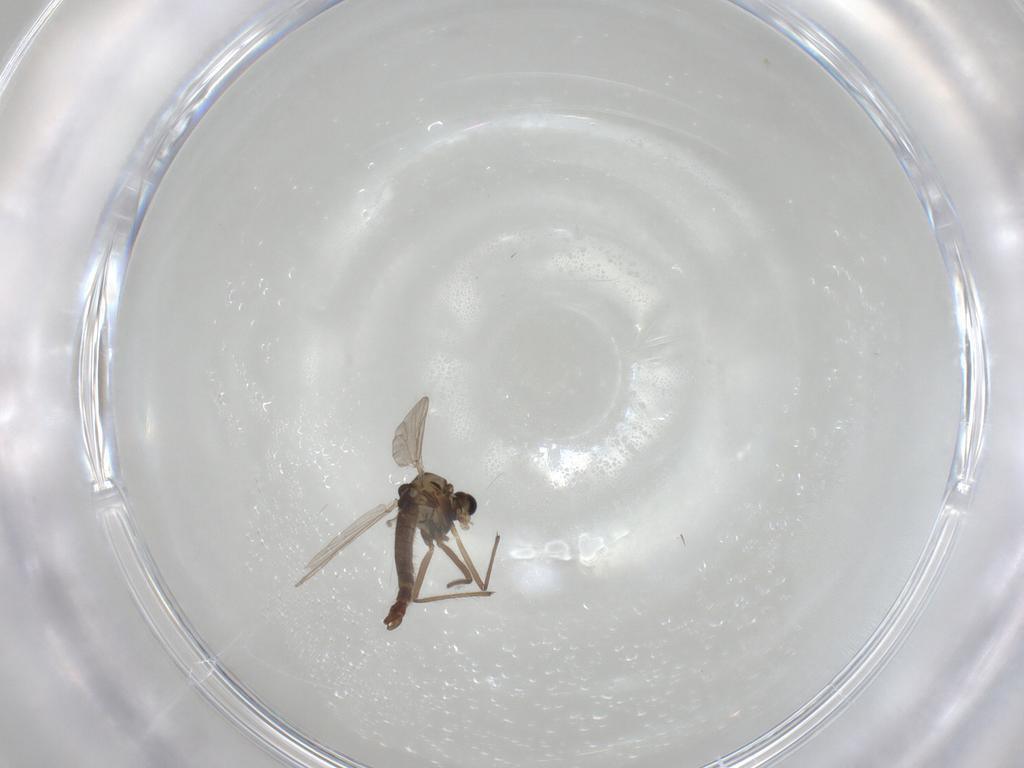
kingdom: Animalia
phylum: Arthropoda
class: Insecta
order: Diptera
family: Chironomidae
